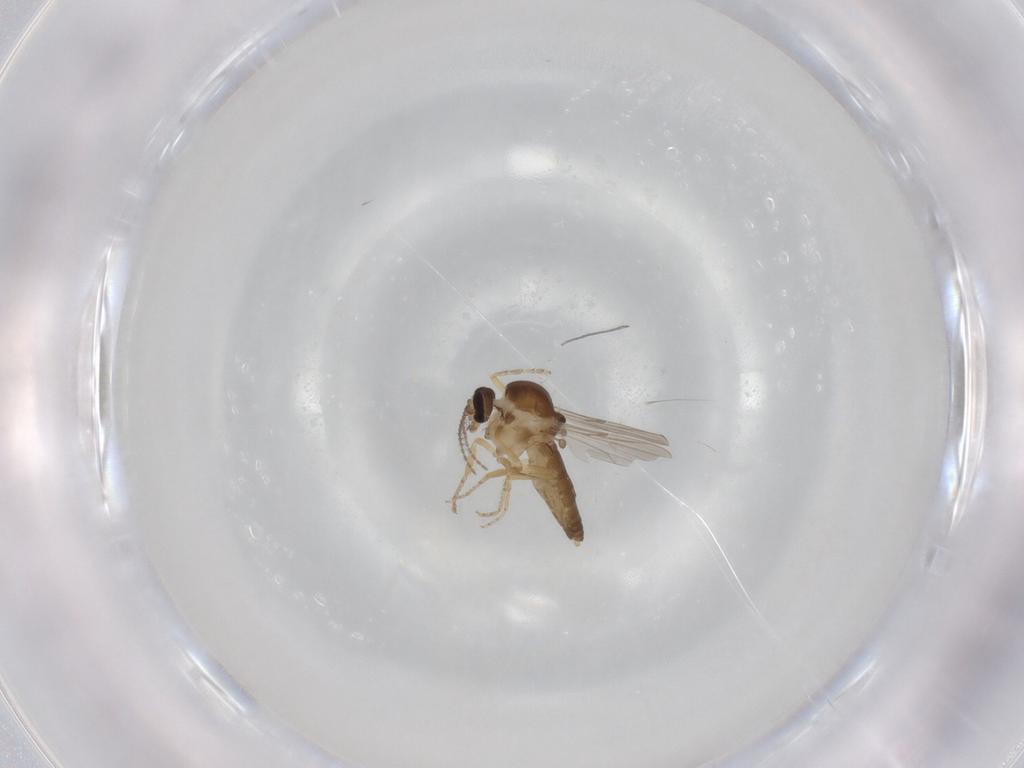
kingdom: Animalia
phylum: Arthropoda
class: Insecta
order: Diptera
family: Ceratopogonidae
